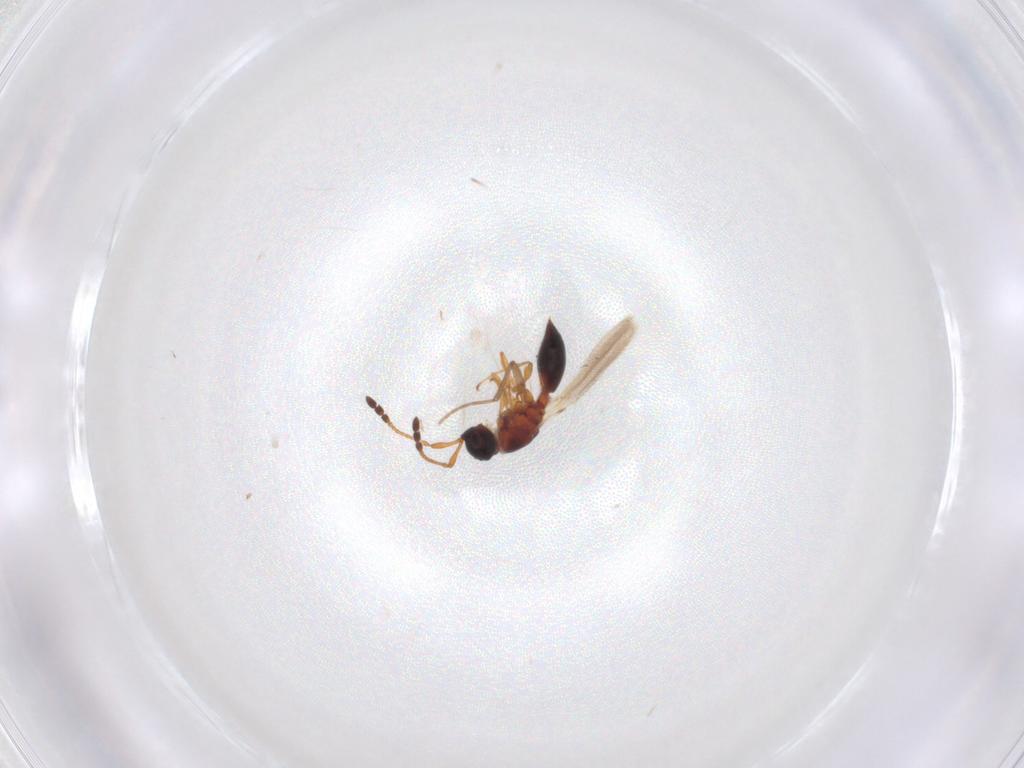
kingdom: Animalia
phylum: Arthropoda
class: Insecta
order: Hymenoptera
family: Diapriidae
